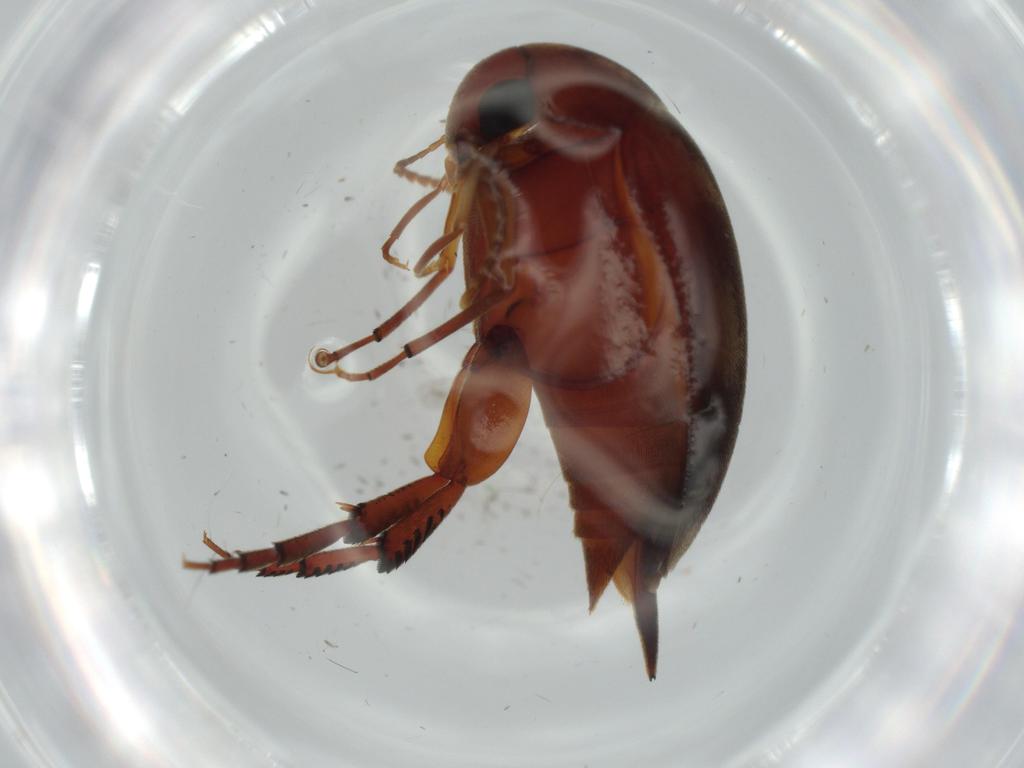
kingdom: Animalia
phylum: Arthropoda
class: Insecta
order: Coleoptera
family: Mordellidae
